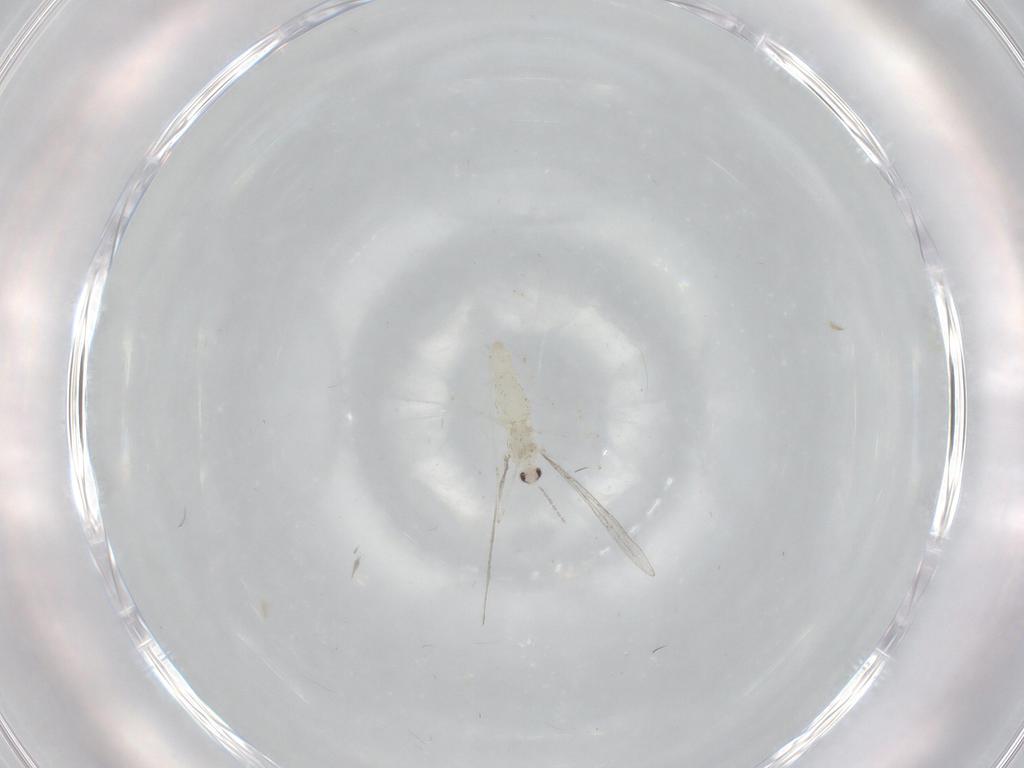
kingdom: Animalia
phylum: Arthropoda
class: Insecta
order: Diptera
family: Cecidomyiidae
